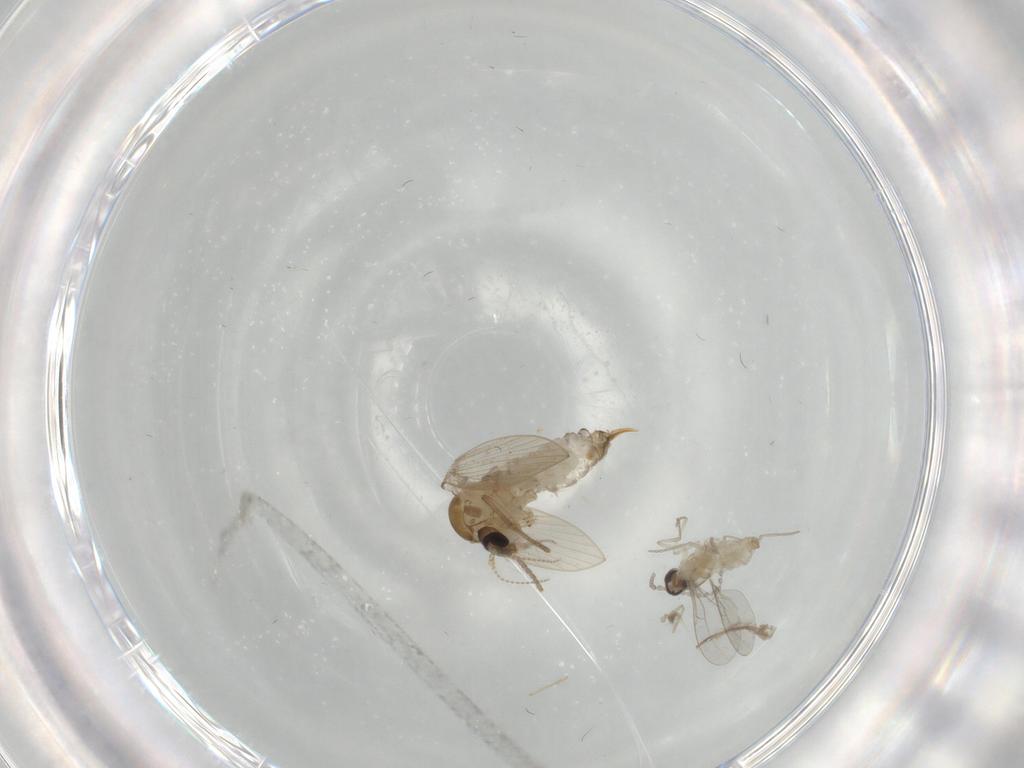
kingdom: Animalia
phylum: Arthropoda
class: Insecta
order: Diptera
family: Psychodidae
